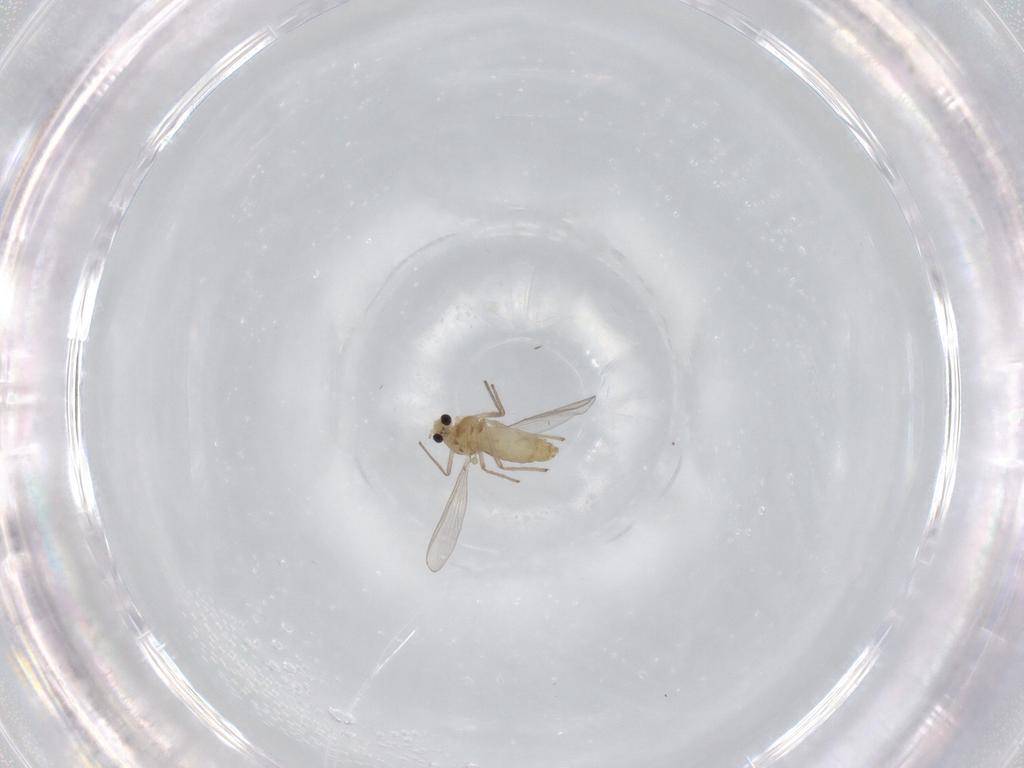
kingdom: Animalia
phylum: Arthropoda
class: Insecta
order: Diptera
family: Chironomidae
